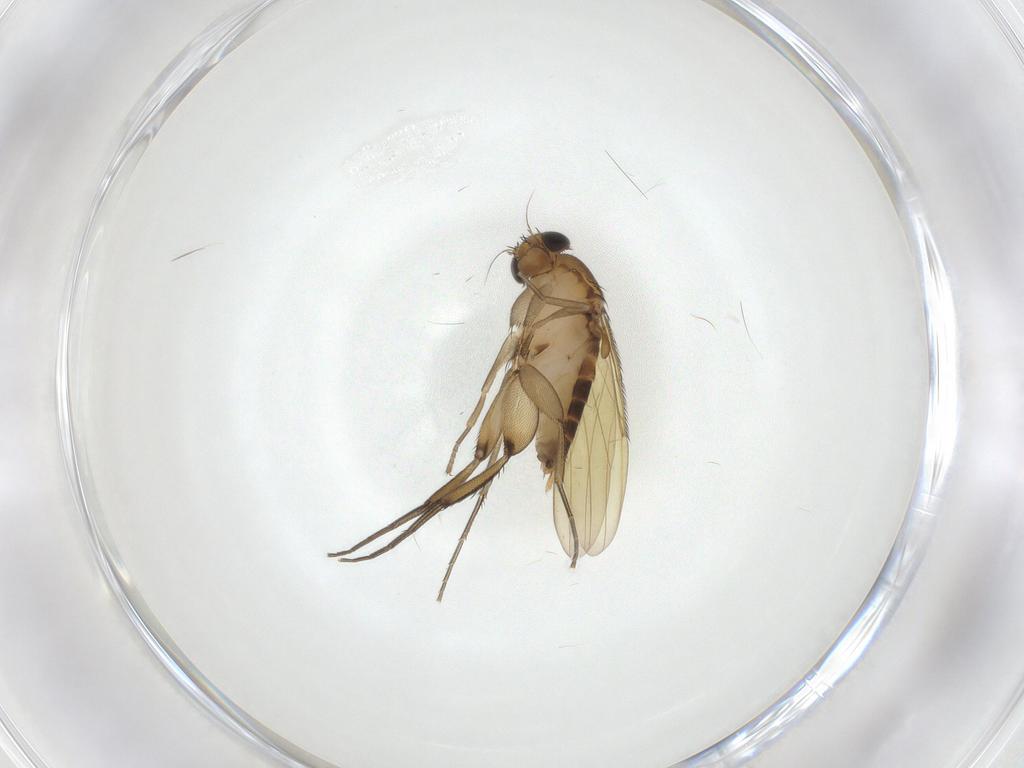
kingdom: Animalia
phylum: Arthropoda
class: Insecta
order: Diptera
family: Phoridae
